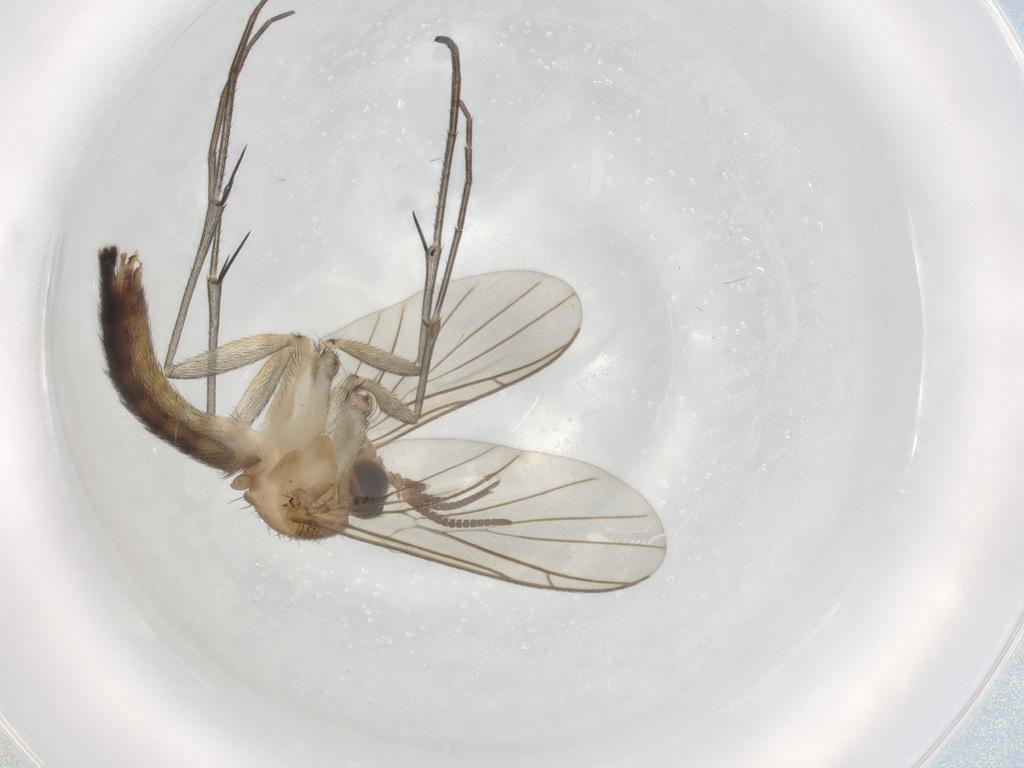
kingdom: Animalia
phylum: Arthropoda
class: Insecta
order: Diptera
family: Keroplatidae
